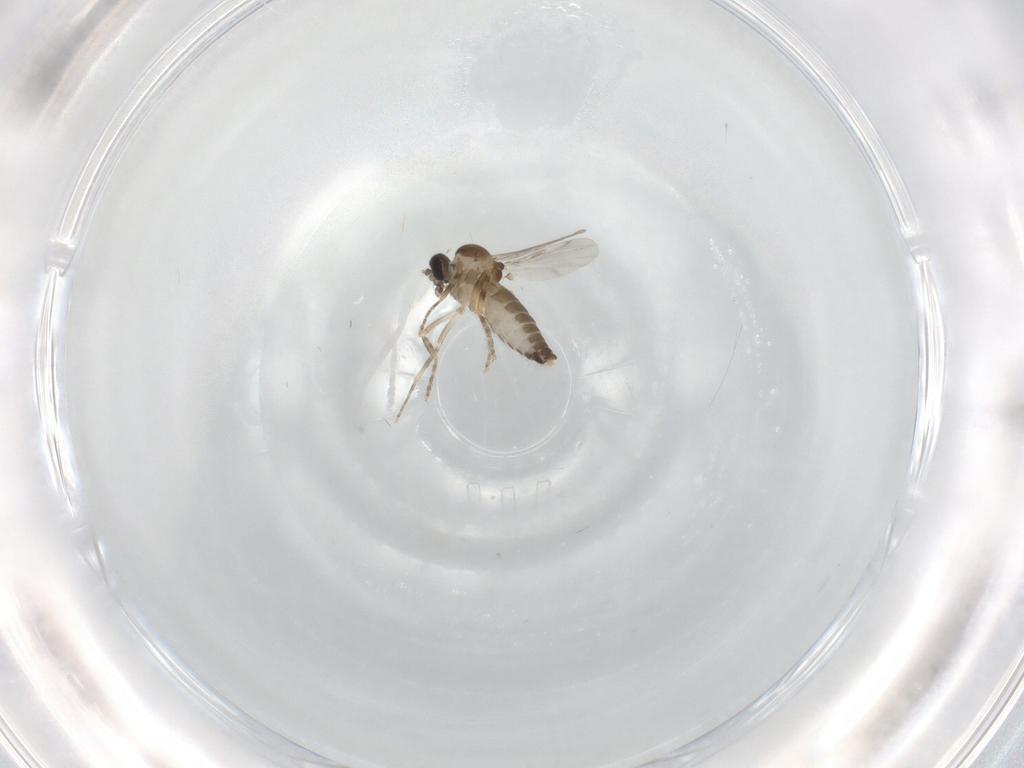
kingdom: Animalia
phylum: Arthropoda
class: Insecta
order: Diptera
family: Ceratopogonidae
